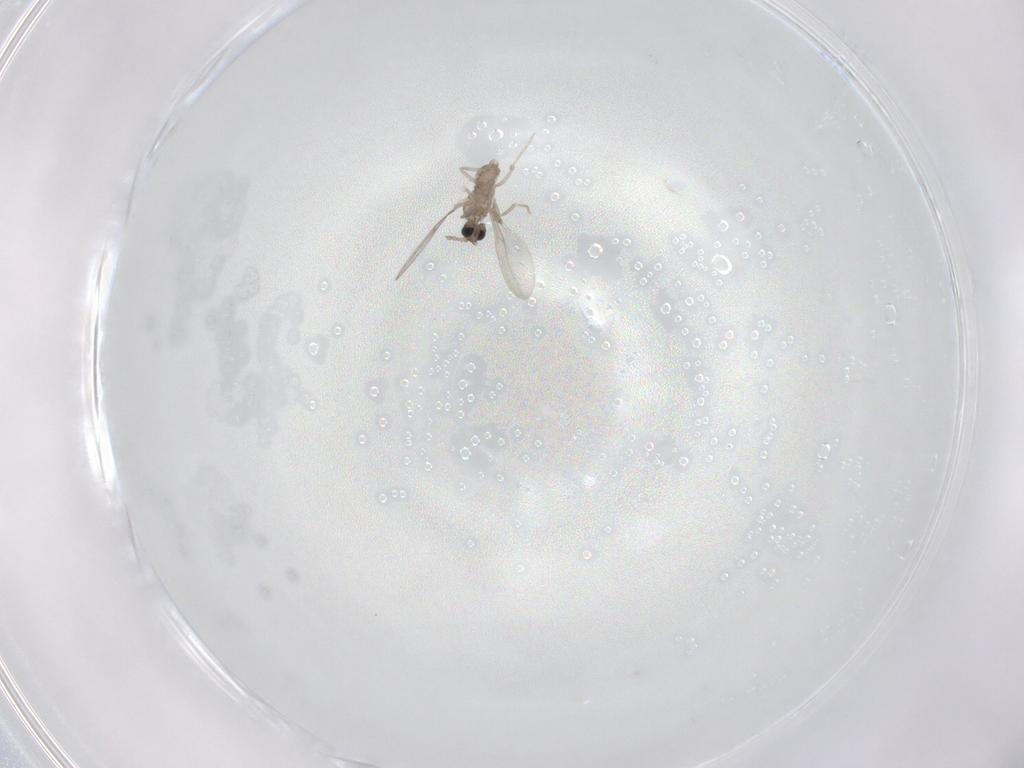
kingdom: Animalia
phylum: Arthropoda
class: Insecta
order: Diptera
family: Cecidomyiidae
